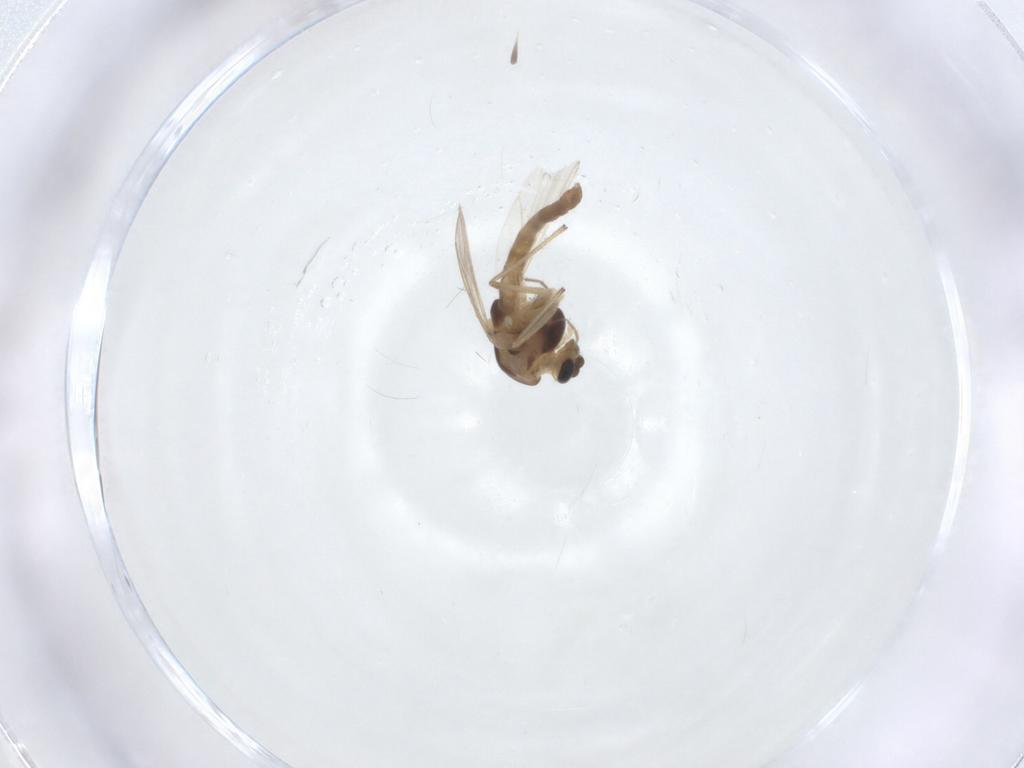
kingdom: Animalia
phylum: Arthropoda
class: Insecta
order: Diptera
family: Chironomidae
